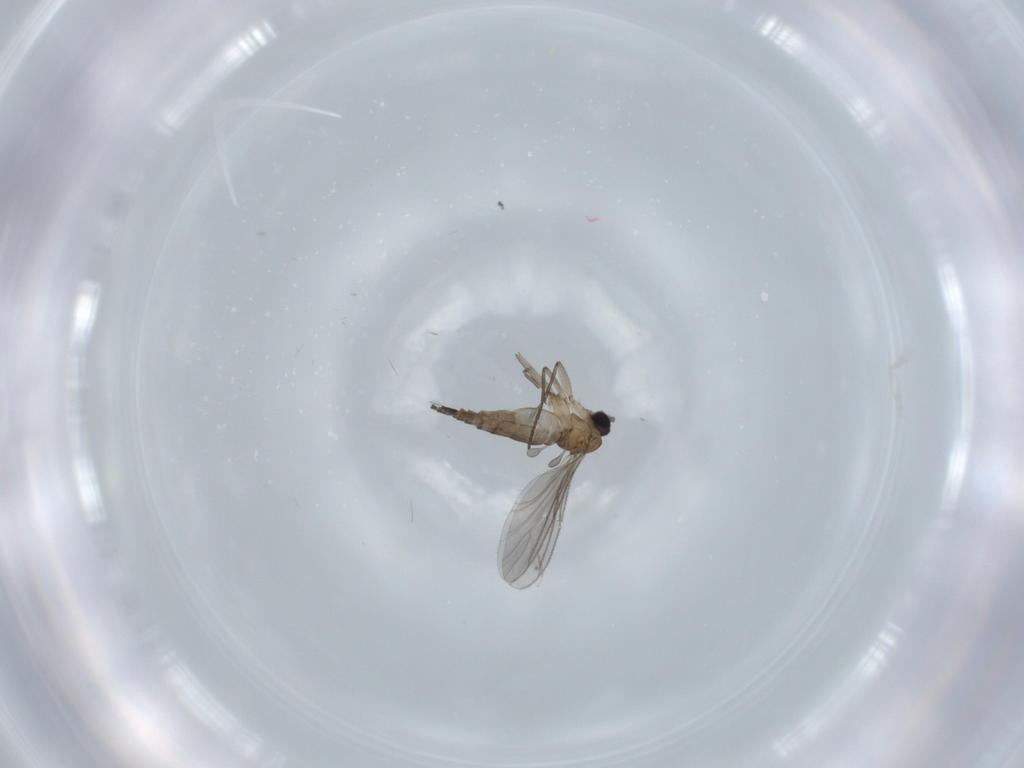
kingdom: Animalia
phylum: Arthropoda
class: Insecta
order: Diptera
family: Sciaridae
